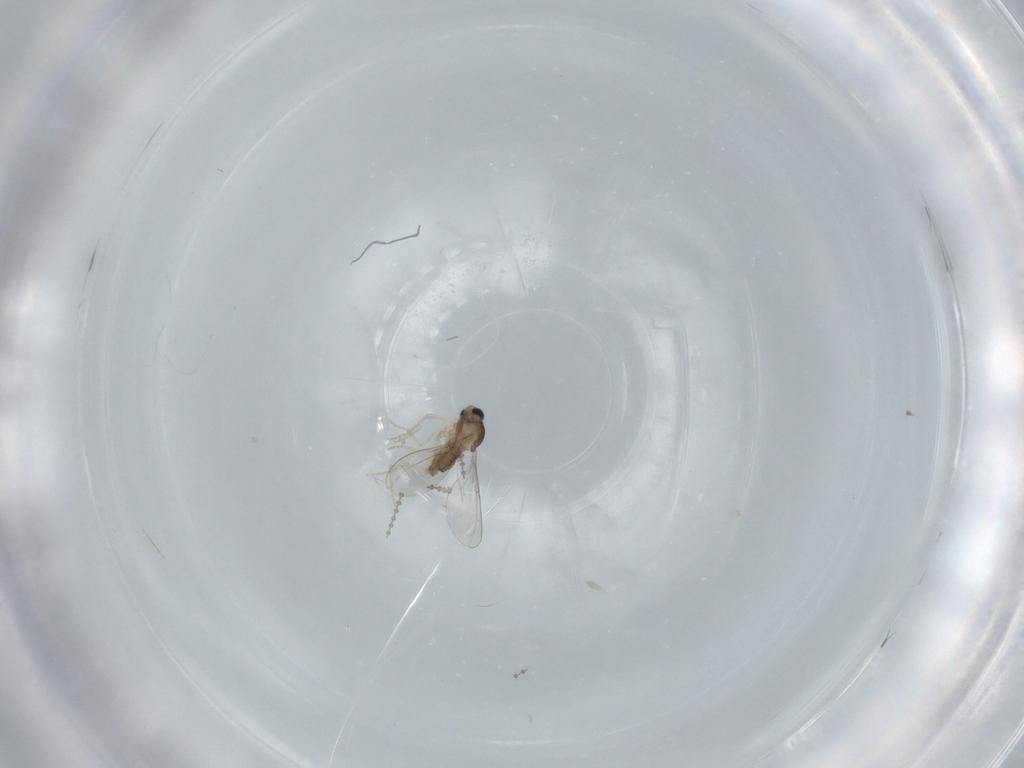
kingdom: Animalia
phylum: Arthropoda
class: Insecta
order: Diptera
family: Cecidomyiidae
